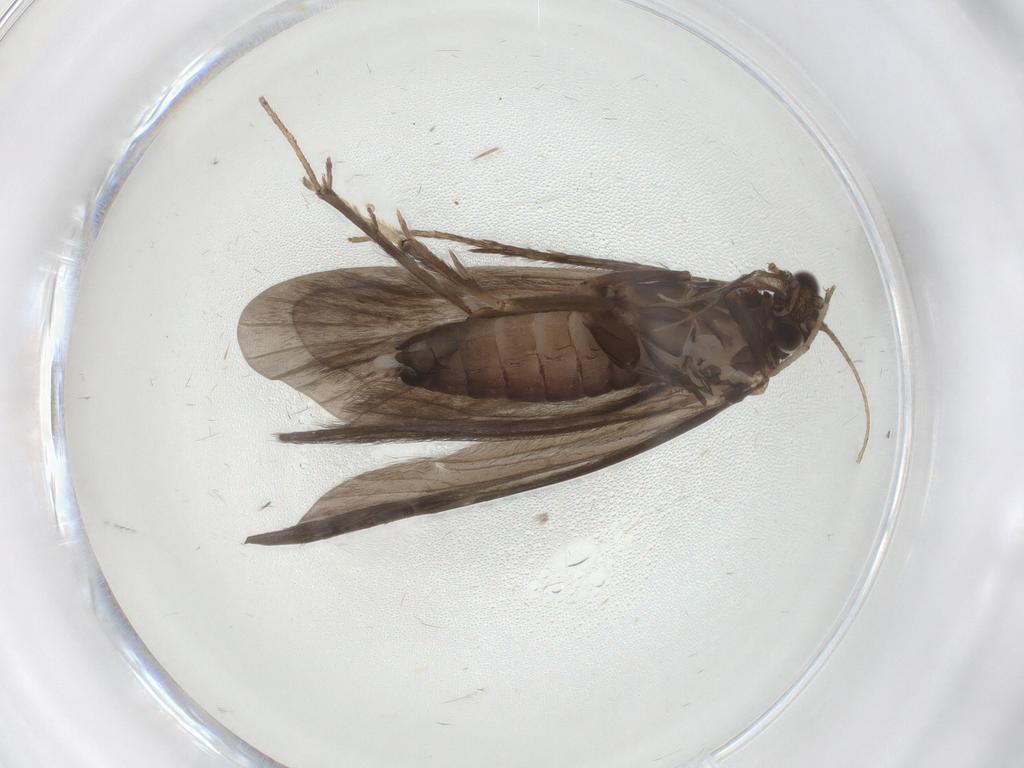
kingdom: Animalia
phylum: Arthropoda
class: Insecta
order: Trichoptera
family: Hydropsychidae
